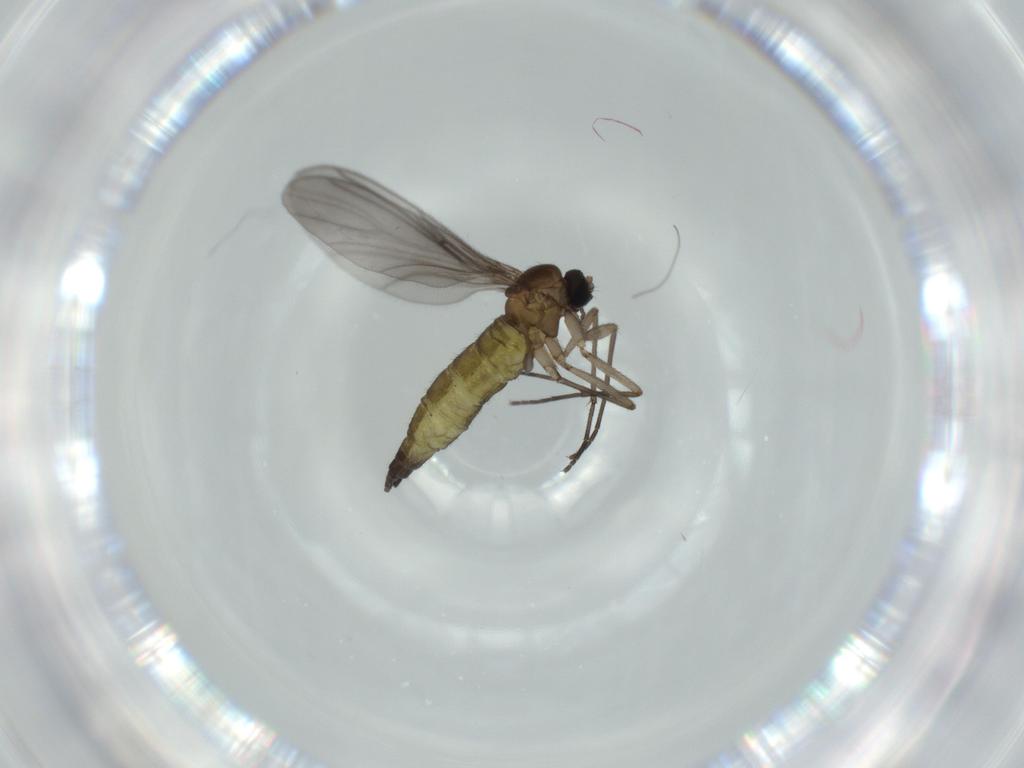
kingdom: Animalia
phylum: Arthropoda
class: Insecta
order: Diptera
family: Sciaridae
